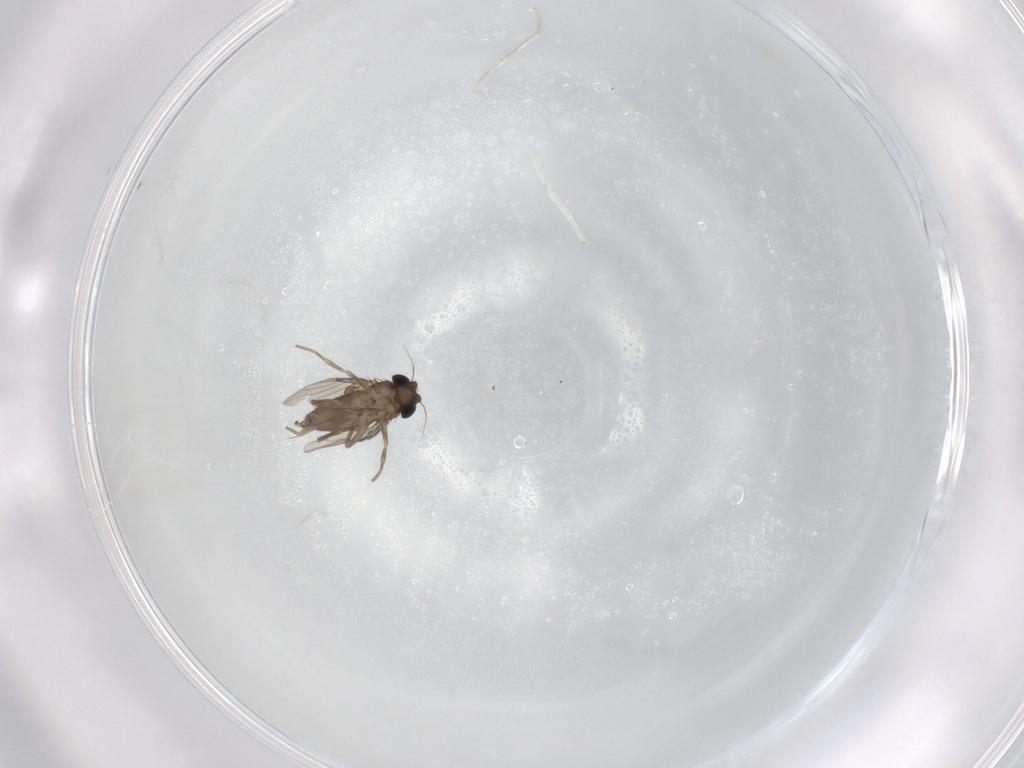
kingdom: Animalia
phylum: Arthropoda
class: Insecta
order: Diptera
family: Phoridae
